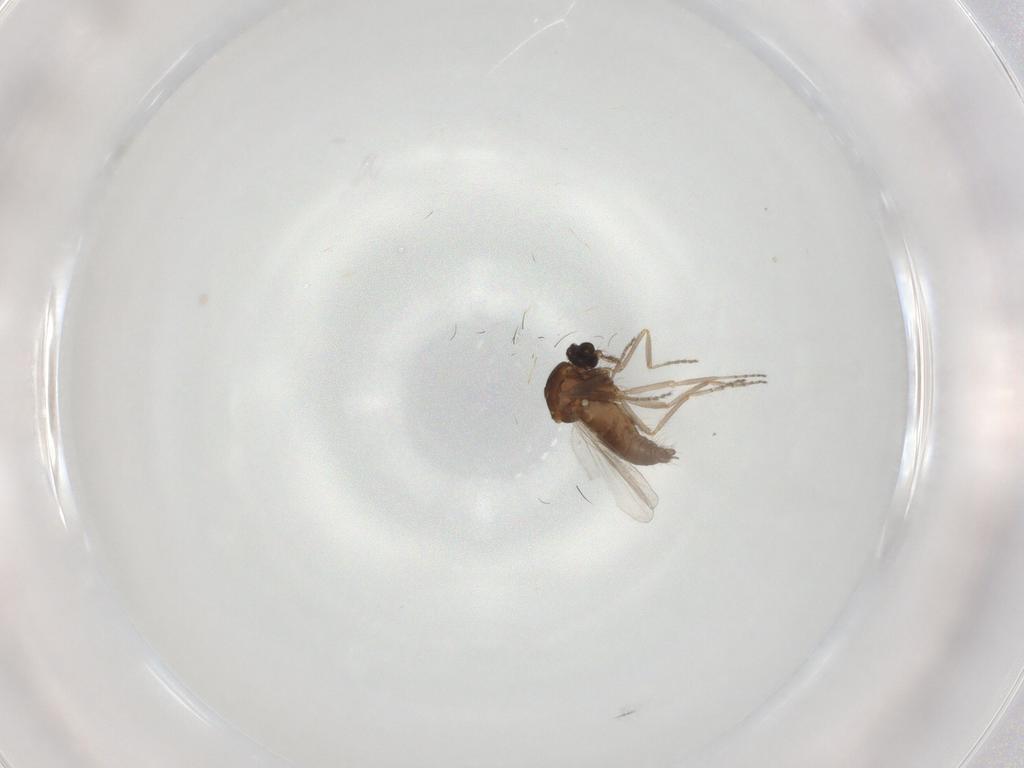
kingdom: Animalia
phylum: Arthropoda
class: Insecta
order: Diptera
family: Ceratopogonidae
